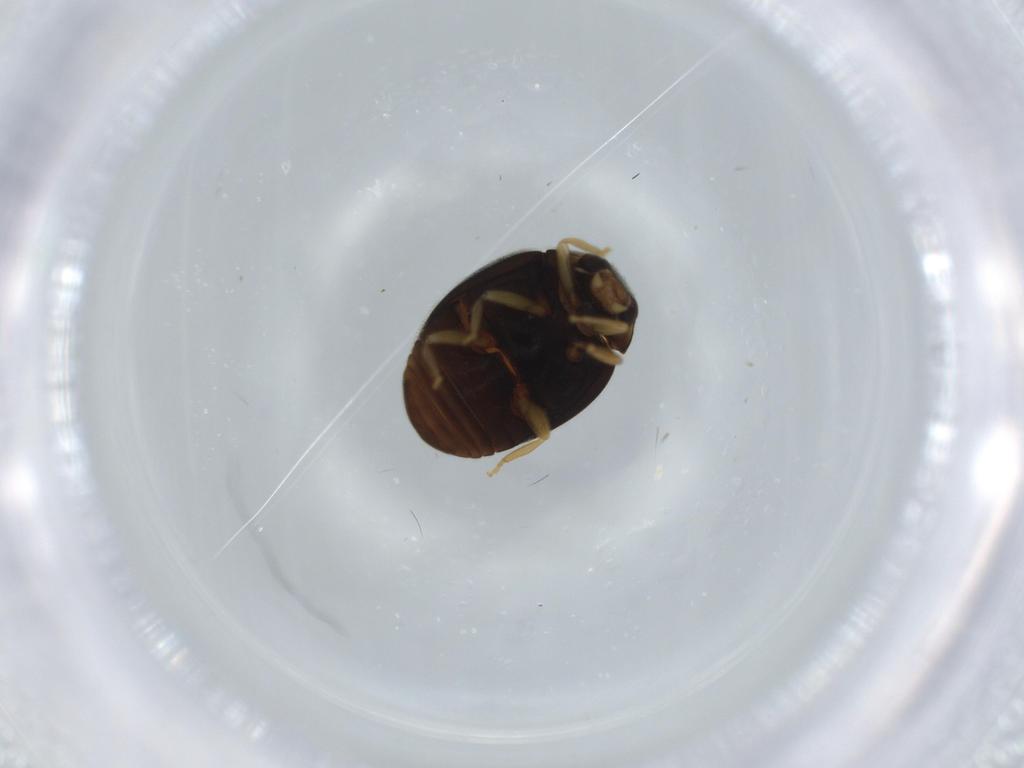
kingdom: Animalia
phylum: Arthropoda
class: Insecta
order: Coleoptera
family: Coccinellidae
